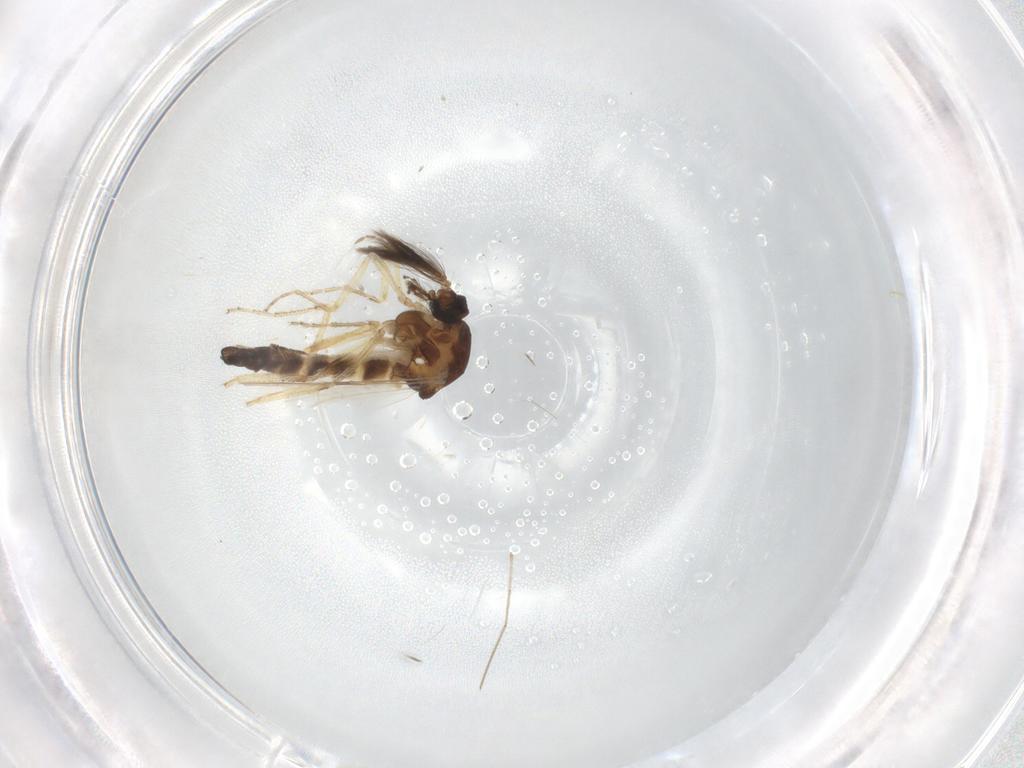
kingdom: Animalia
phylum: Arthropoda
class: Insecta
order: Diptera
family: Ceratopogonidae
